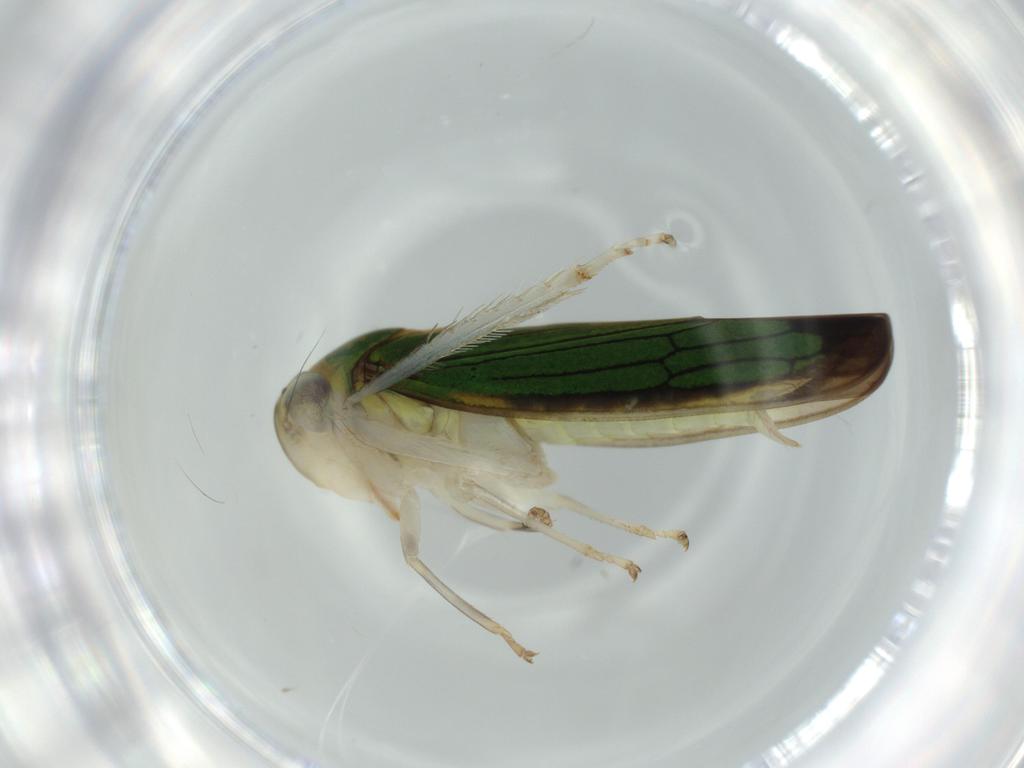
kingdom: Animalia
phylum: Arthropoda
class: Insecta
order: Hemiptera
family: Cicadellidae
